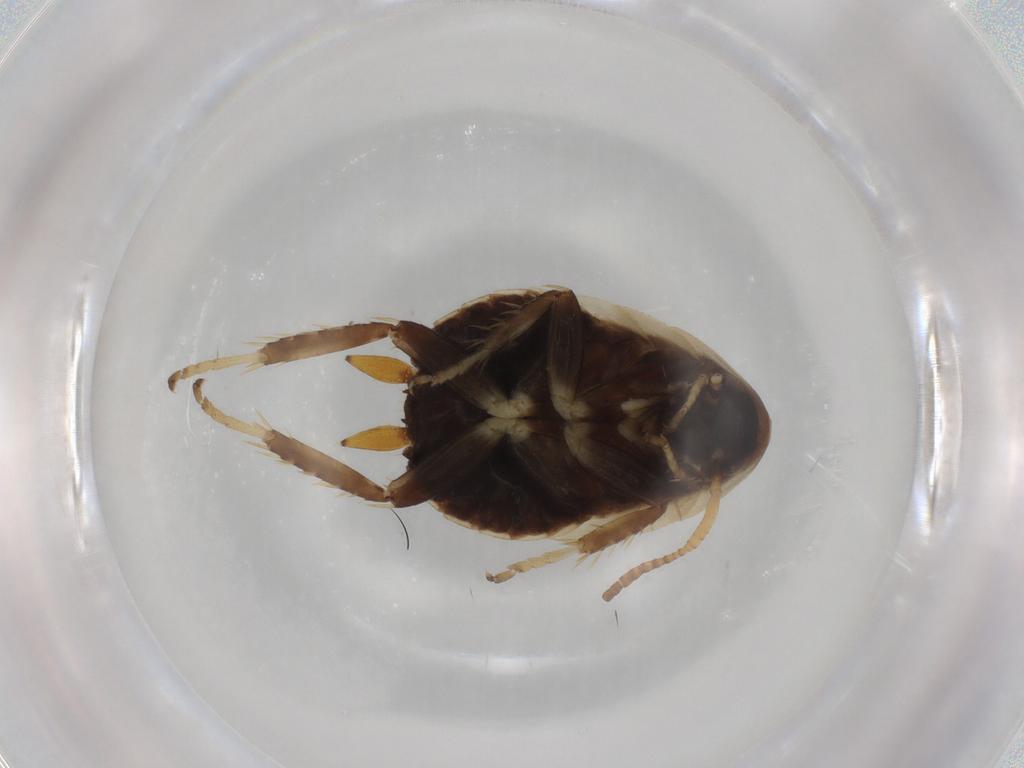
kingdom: Animalia
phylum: Arthropoda
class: Insecta
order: Blattodea
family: Ectobiidae
